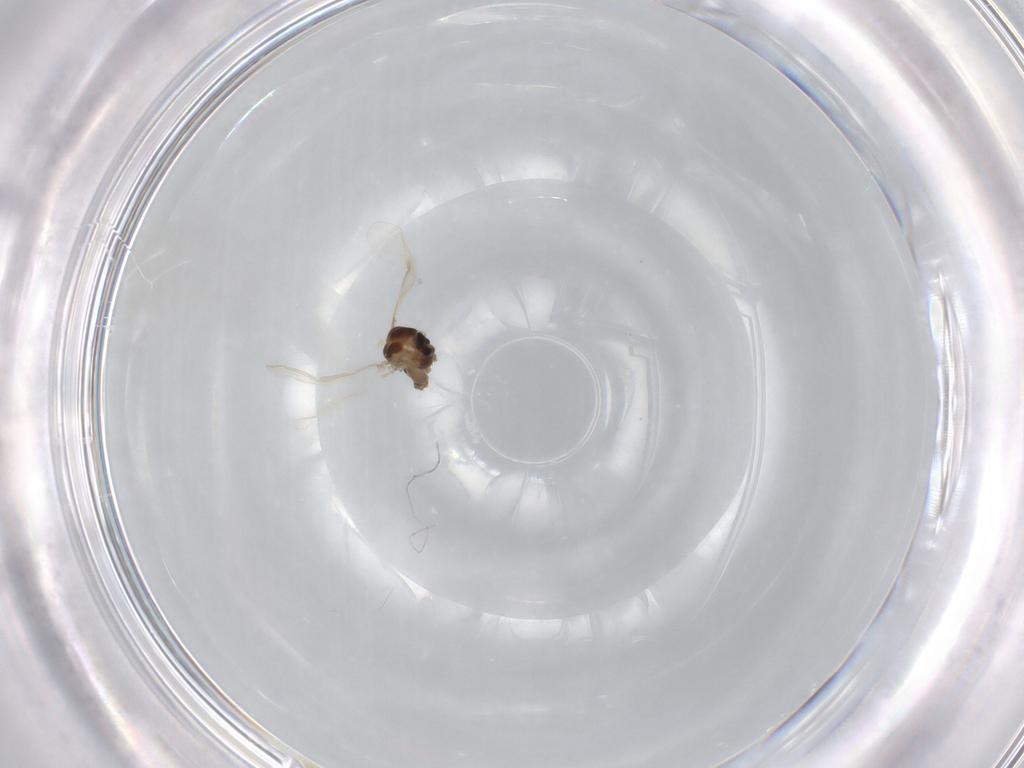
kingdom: Animalia
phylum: Arthropoda
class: Insecta
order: Diptera
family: Chironomidae
